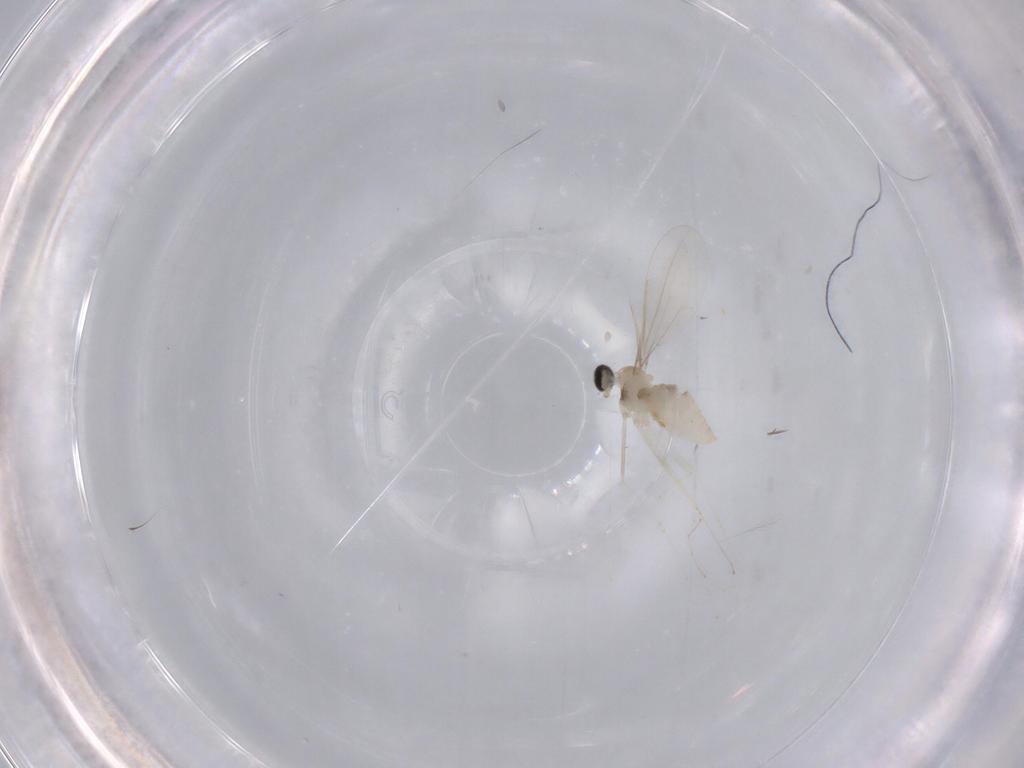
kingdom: Animalia
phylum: Arthropoda
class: Insecta
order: Diptera
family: Cecidomyiidae
